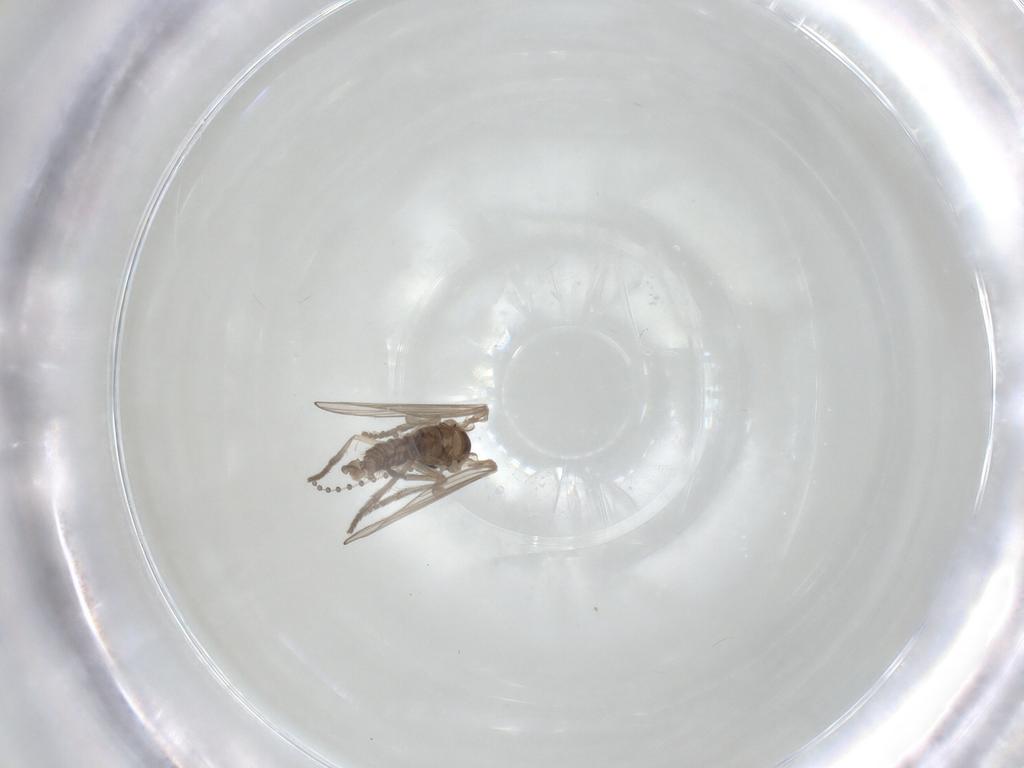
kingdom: Animalia
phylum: Arthropoda
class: Insecta
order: Diptera
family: Psychodidae
